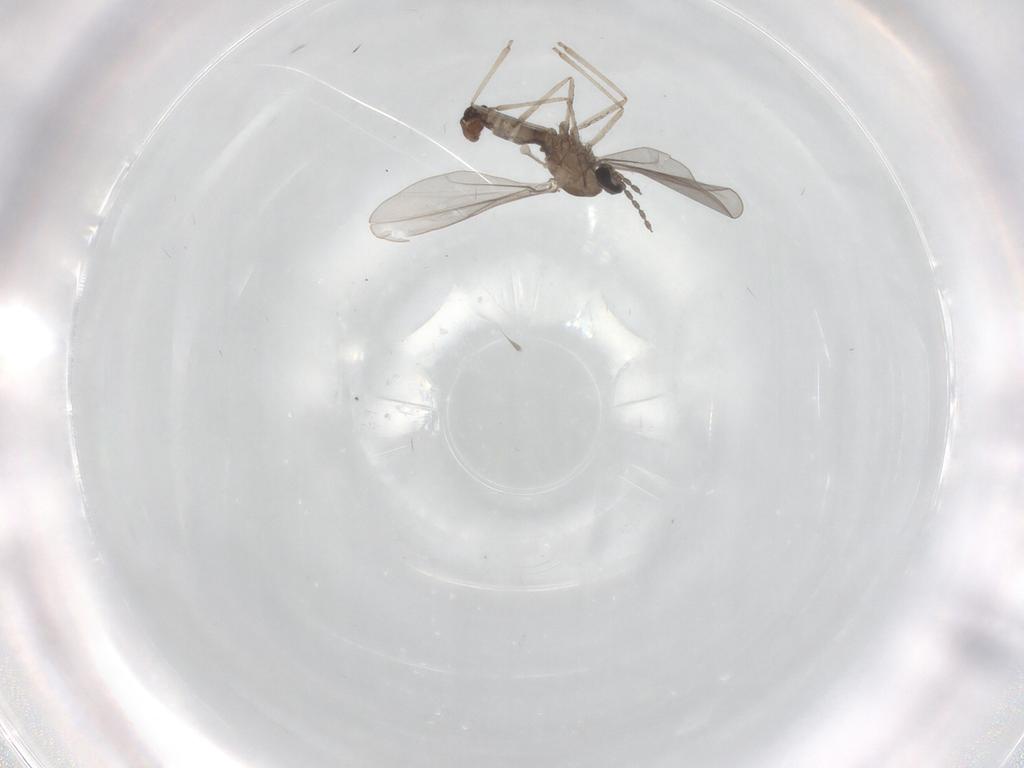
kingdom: Animalia
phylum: Arthropoda
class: Insecta
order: Diptera
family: Cecidomyiidae
